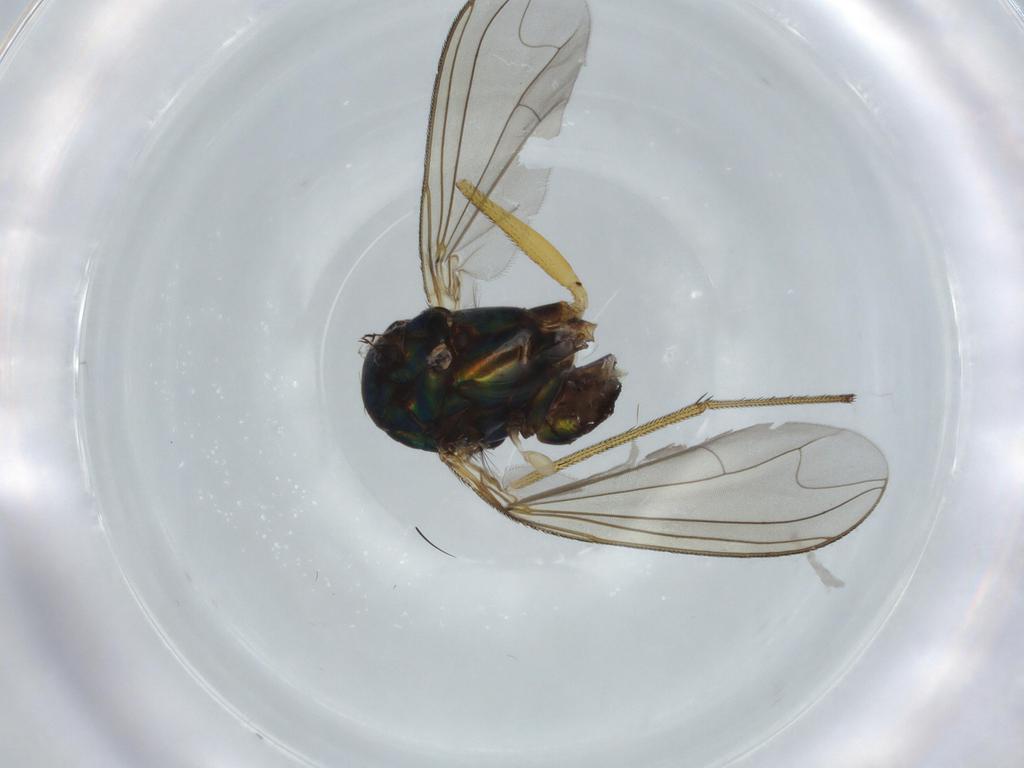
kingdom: Animalia
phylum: Arthropoda
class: Insecta
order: Diptera
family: Dolichopodidae
